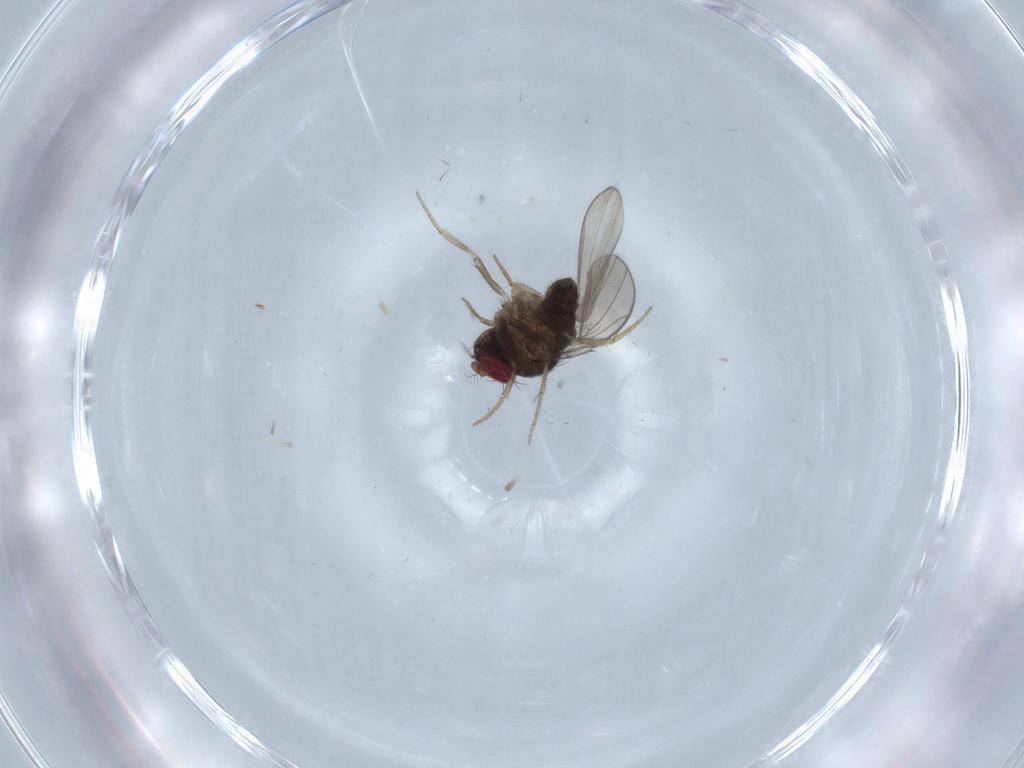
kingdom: Animalia
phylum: Arthropoda
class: Insecta
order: Diptera
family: Drosophilidae
